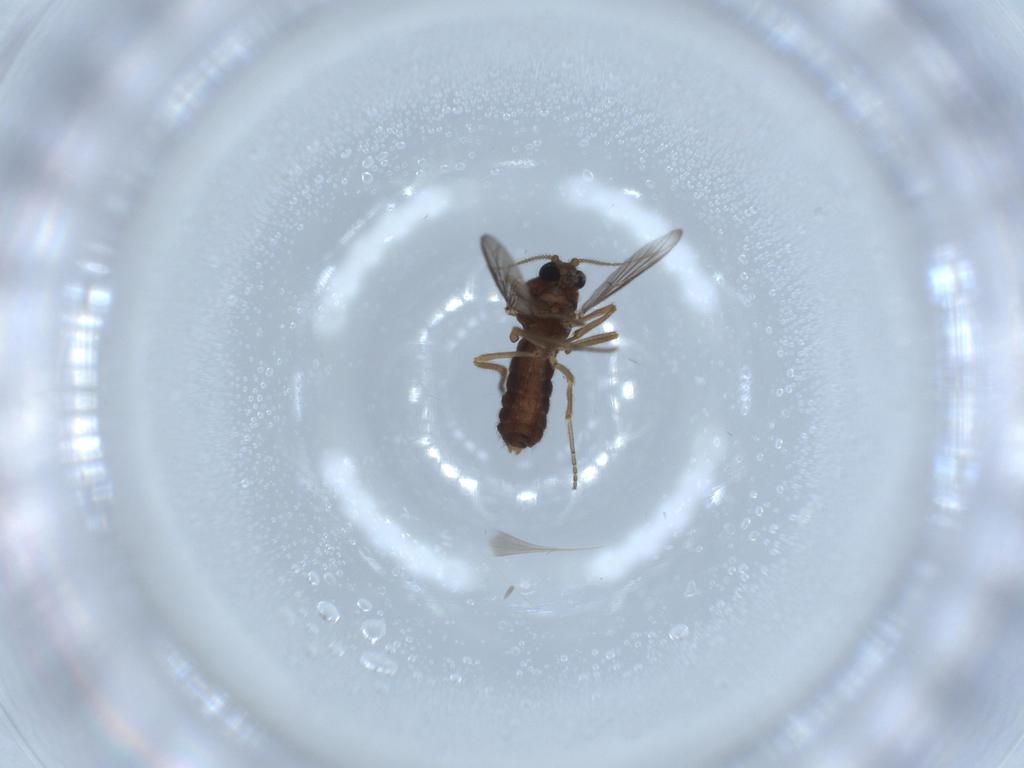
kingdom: Animalia
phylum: Arthropoda
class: Insecta
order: Diptera
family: Ceratopogonidae
